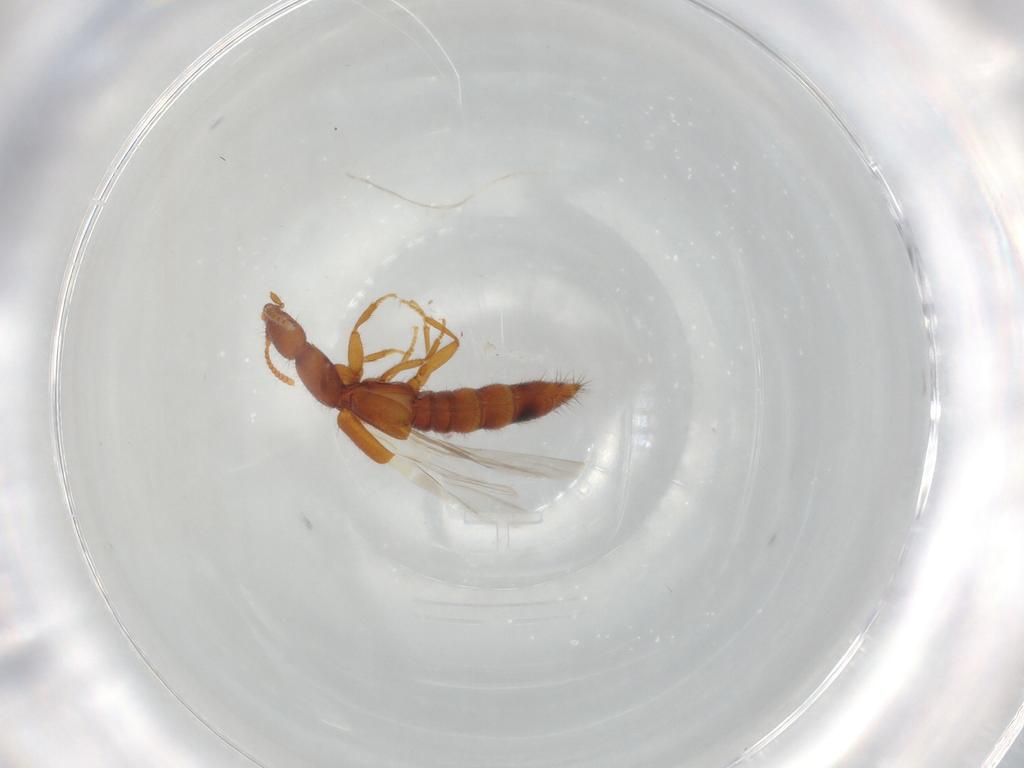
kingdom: Animalia
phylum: Arthropoda
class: Insecta
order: Coleoptera
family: Staphylinidae
